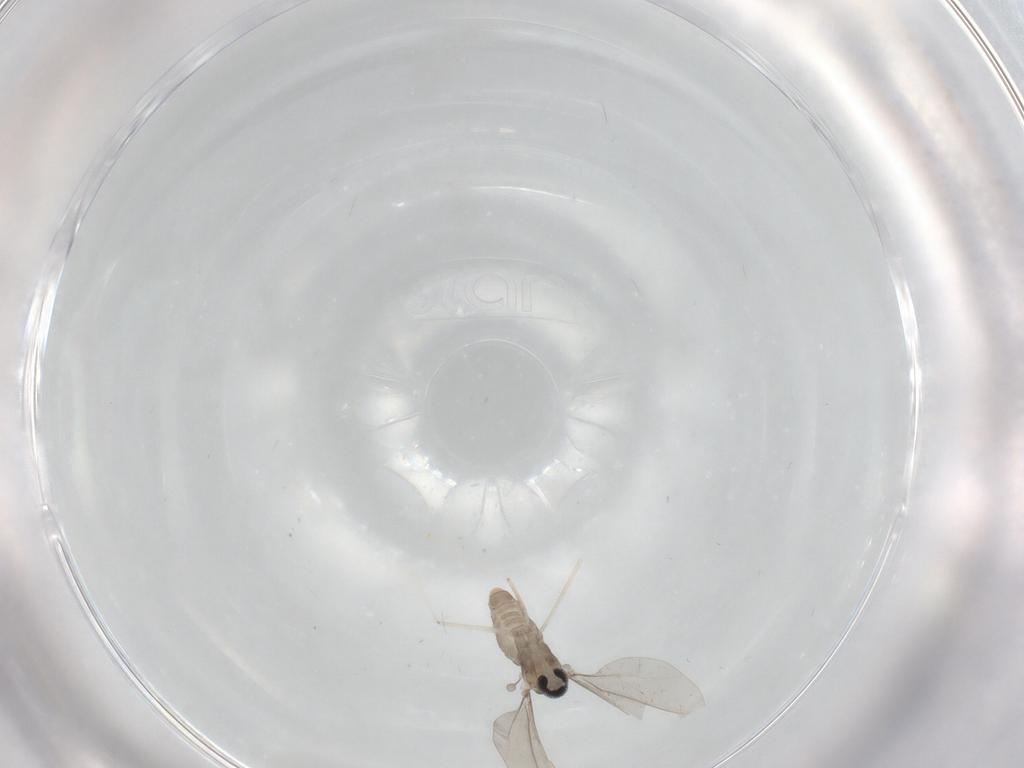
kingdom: Animalia
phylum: Arthropoda
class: Insecta
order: Diptera
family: Cecidomyiidae
